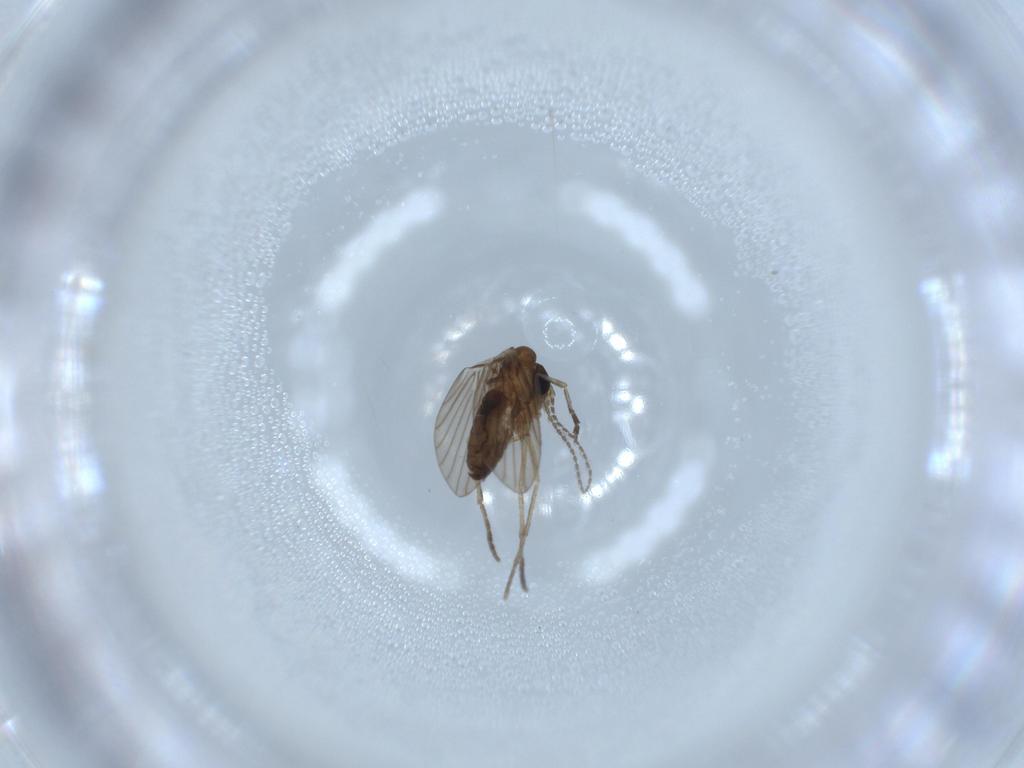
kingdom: Animalia
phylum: Arthropoda
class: Insecta
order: Diptera
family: Psychodidae
